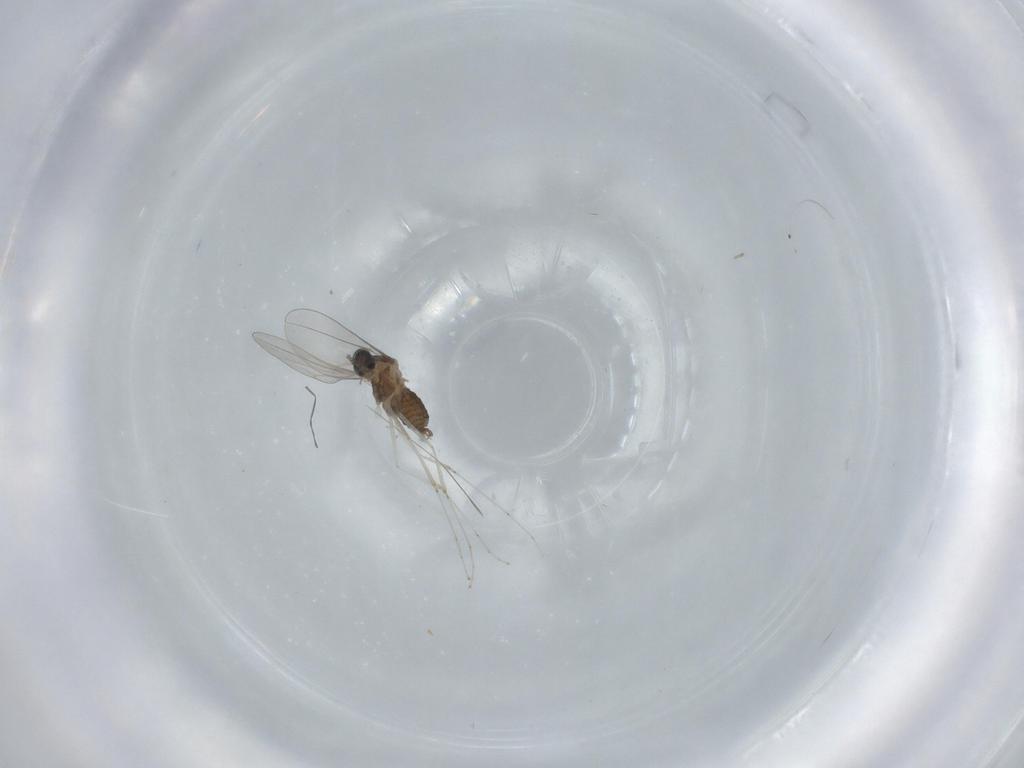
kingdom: Animalia
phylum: Arthropoda
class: Insecta
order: Diptera
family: Cecidomyiidae
